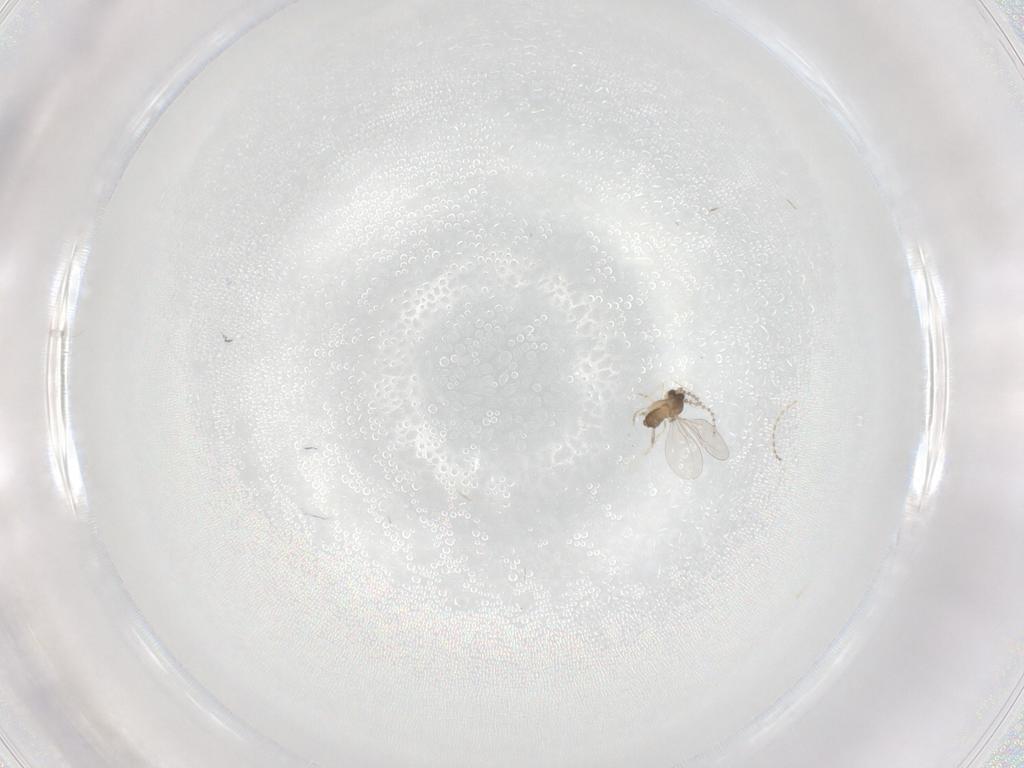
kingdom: Animalia
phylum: Arthropoda
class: Insecta
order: Diptera
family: Cecidomyiidae
